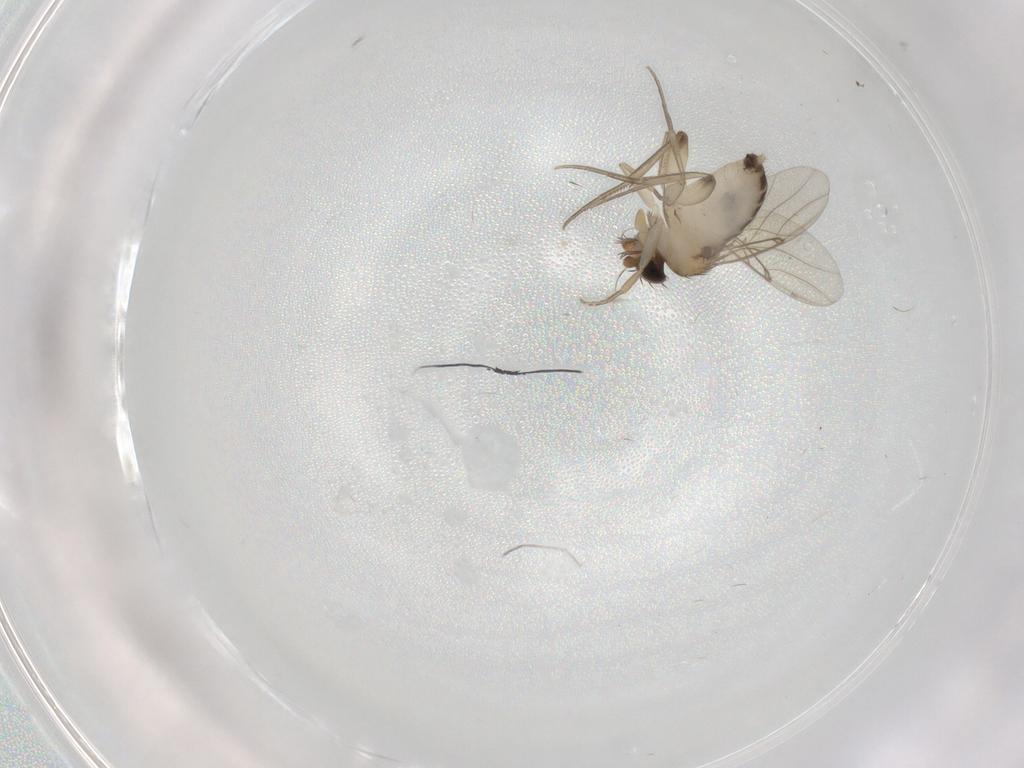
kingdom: Animalia
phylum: Arthropoda
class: Insecta
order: Diptera
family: Phoridae
